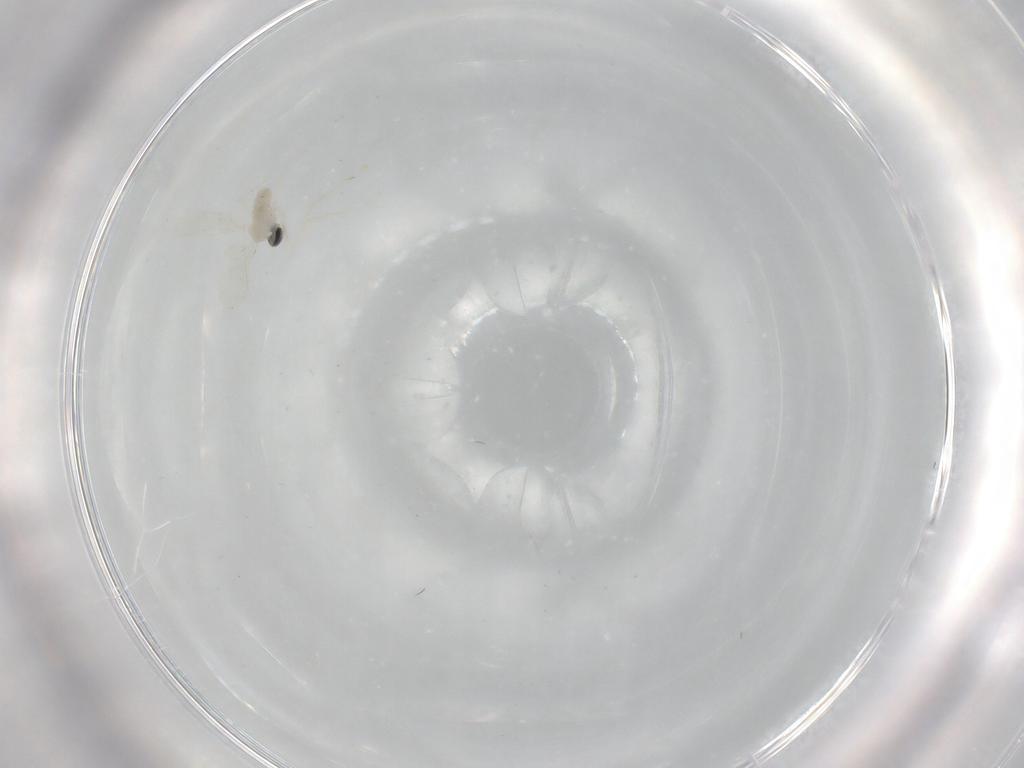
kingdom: Animalia
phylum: Arthropoda
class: Insecta
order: Diptera
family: Cecidomyiidae
